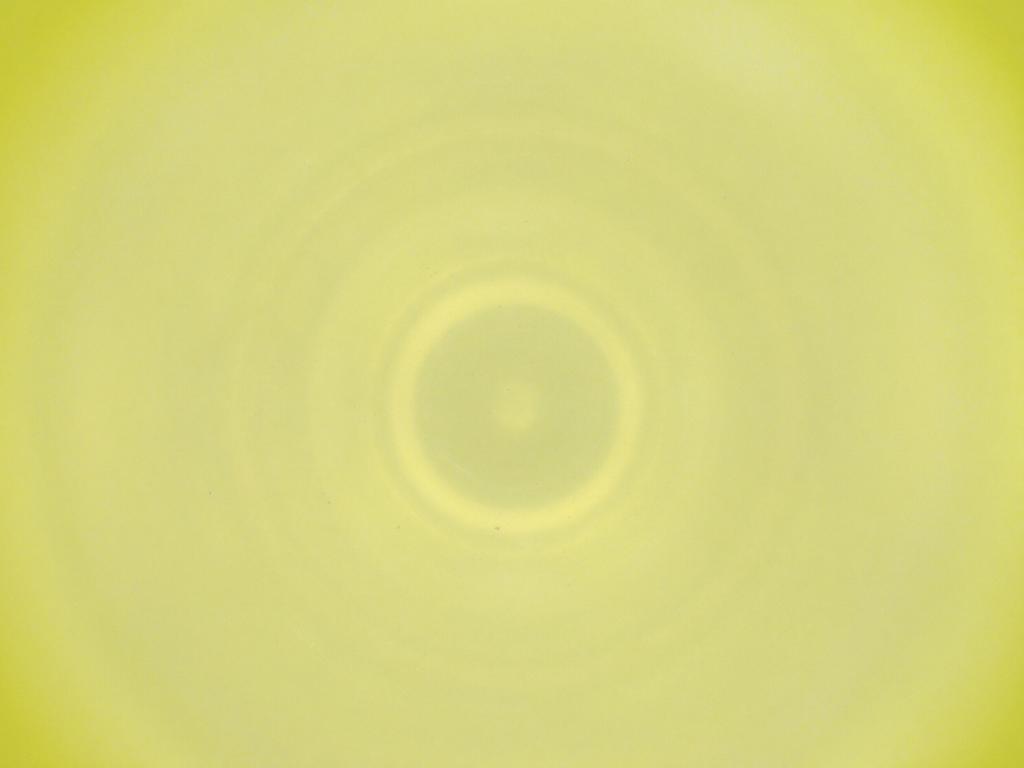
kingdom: Animalia
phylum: Arthropoda
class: Insecta
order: Diptera
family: Cecidomyiidae
